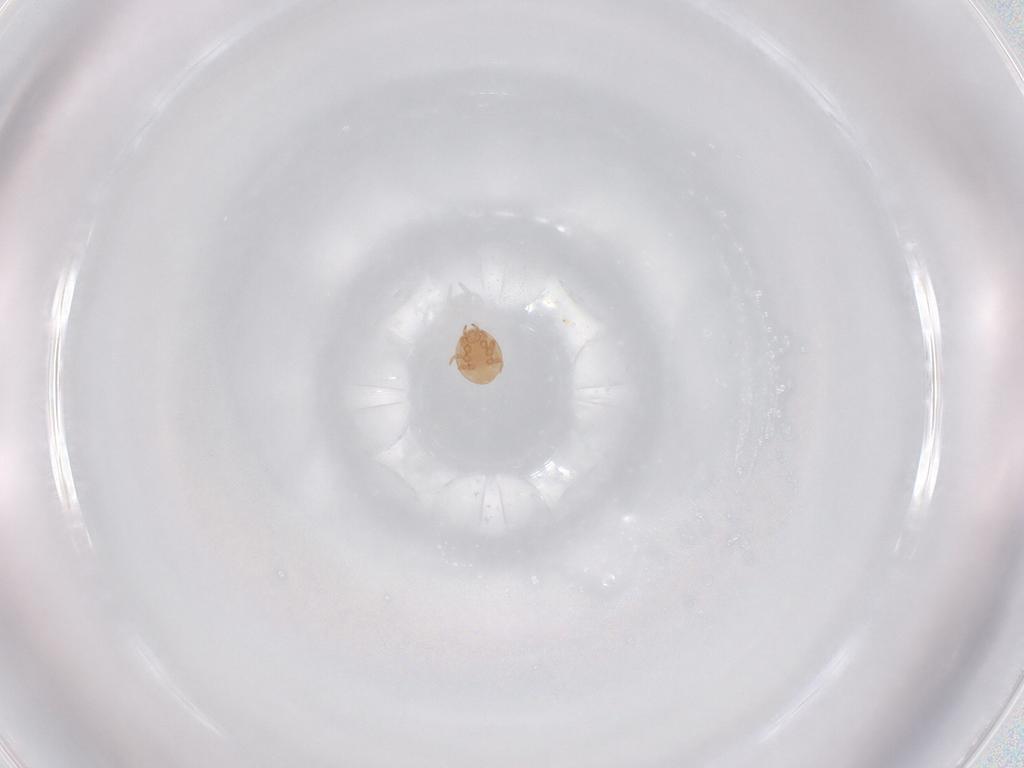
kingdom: Animalia
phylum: Arthropoda
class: Arachnida
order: Mesostigmata
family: Trematuridae
